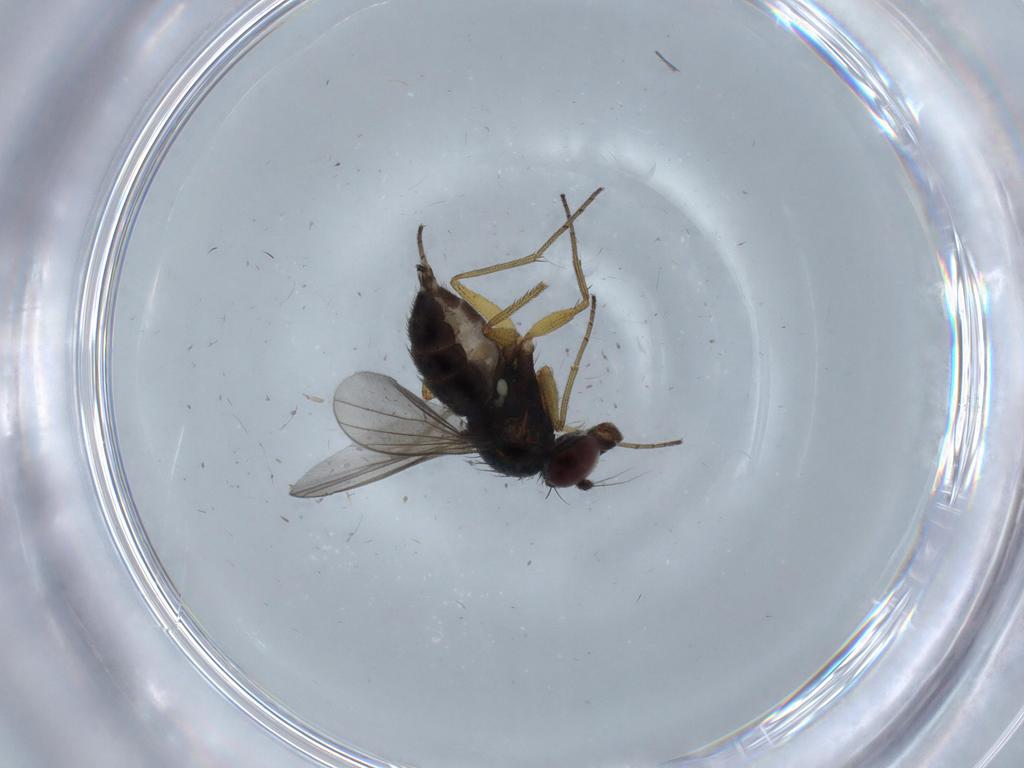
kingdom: Animalia
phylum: Arthropoda
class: Insecta
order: Diptera
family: Dolichopodidae
